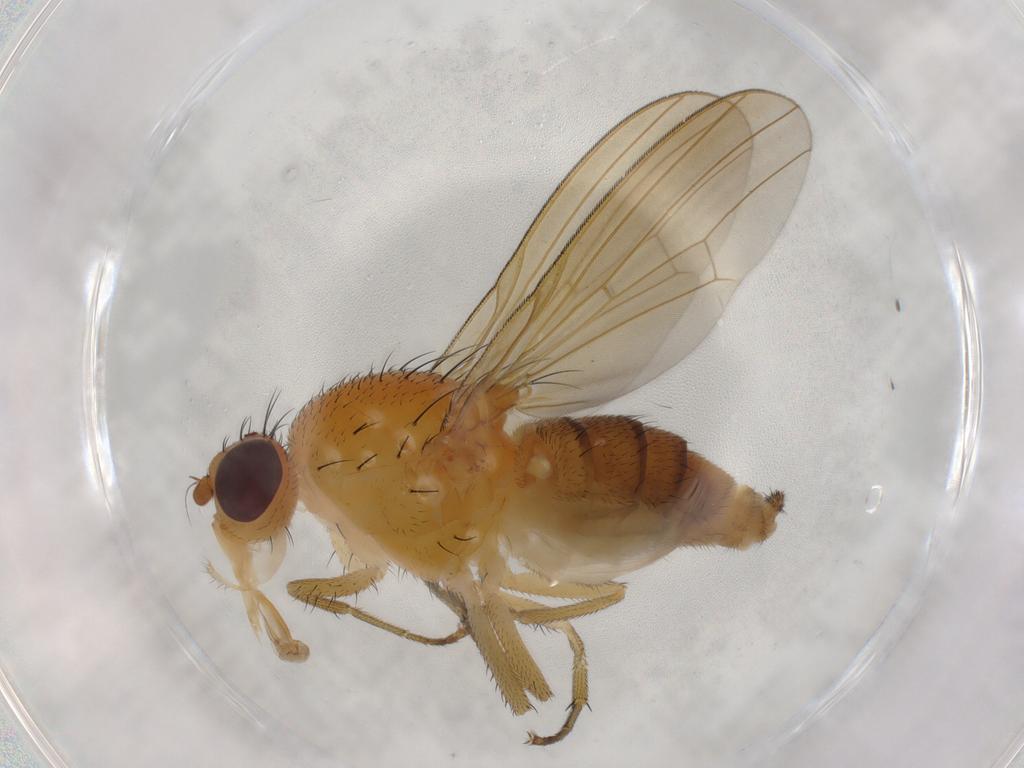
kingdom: Animalia
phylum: Arthropoda
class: Insecta
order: Diptera
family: Lauxaniidae
